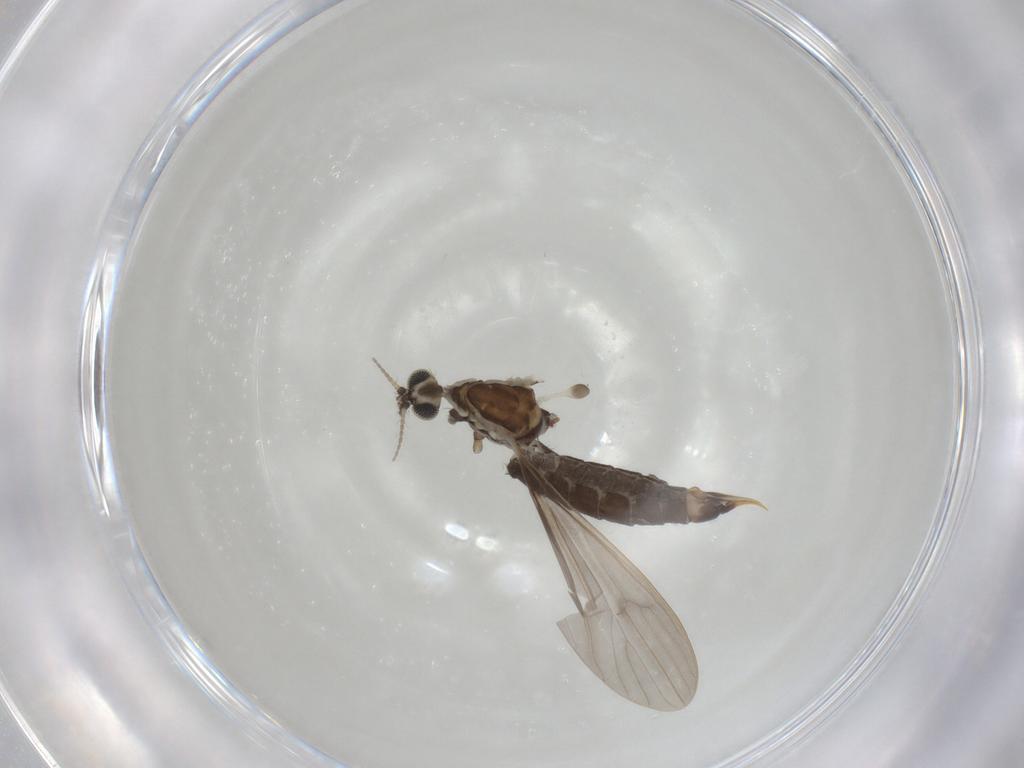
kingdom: Animalia
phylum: Arthropoda
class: Insecta
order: Diptera
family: Limoniidae
